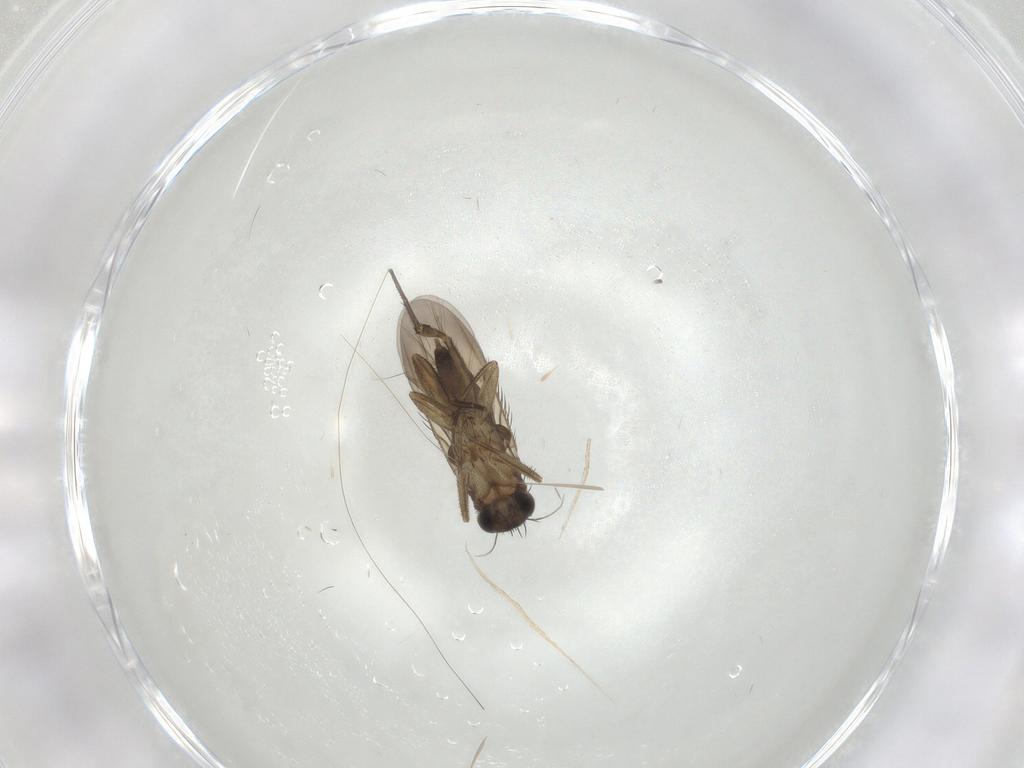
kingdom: Animalia
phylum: Arthropoda
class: Insecta
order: Diptera
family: Phoridae
